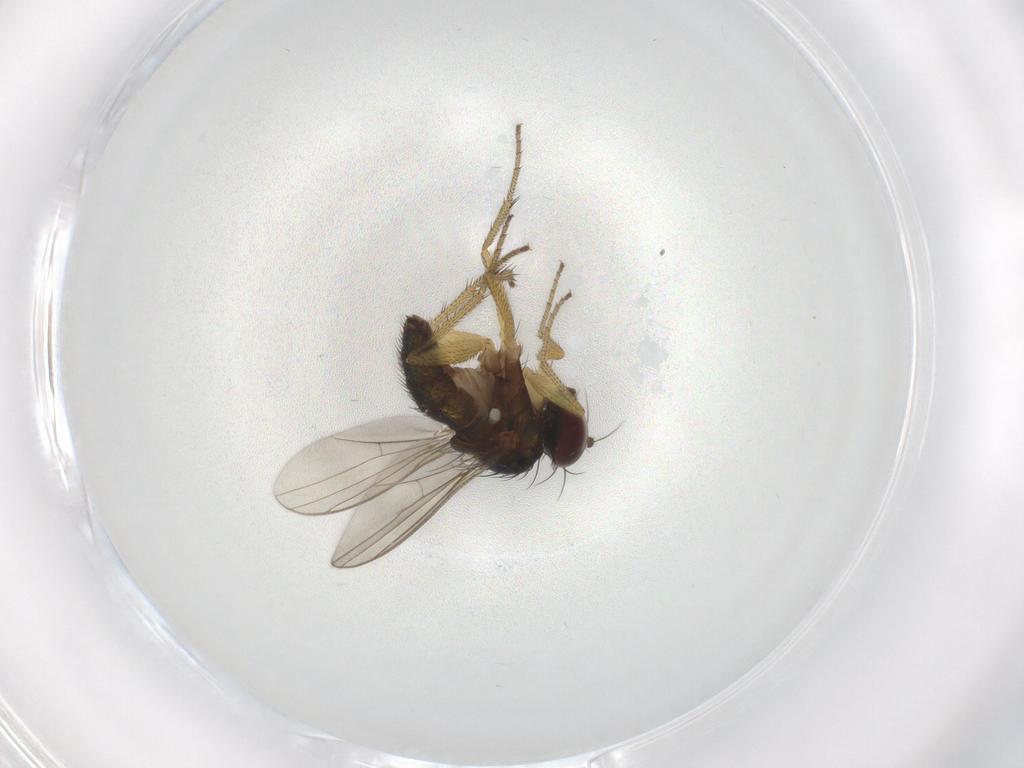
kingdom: Animalia
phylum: Arthropoda
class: Insecta
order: Diptera
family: Dolichopodidae
